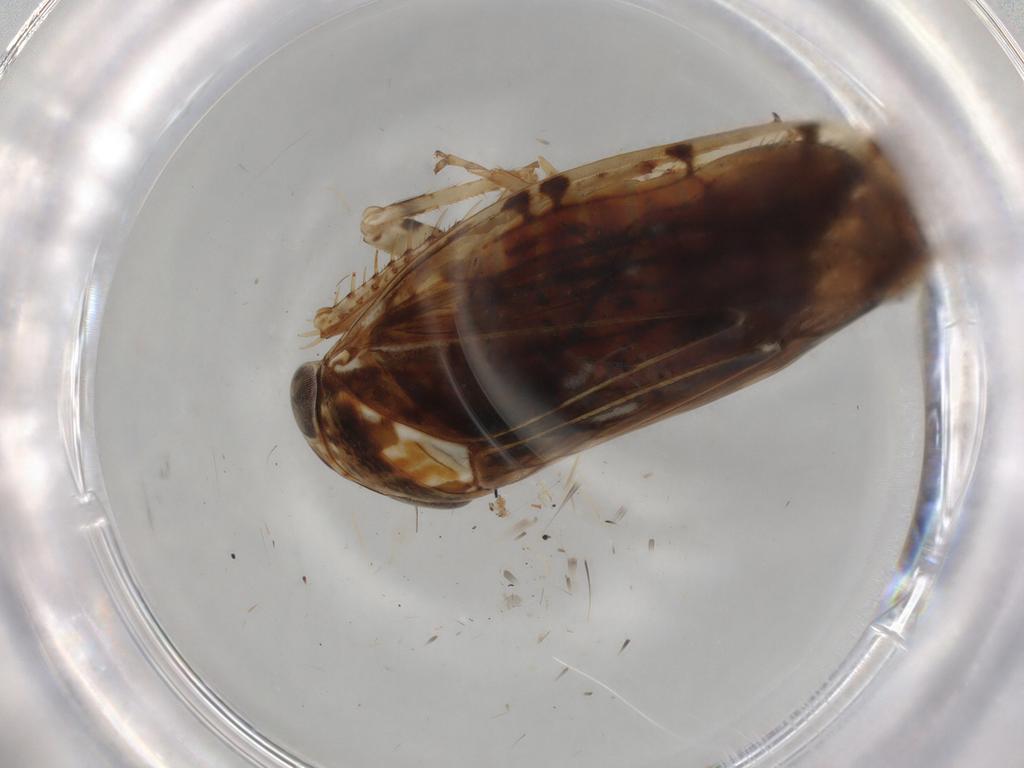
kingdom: Animalia
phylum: Arthropoda
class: Insecta
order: Hemiptera
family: Cicadellidae
